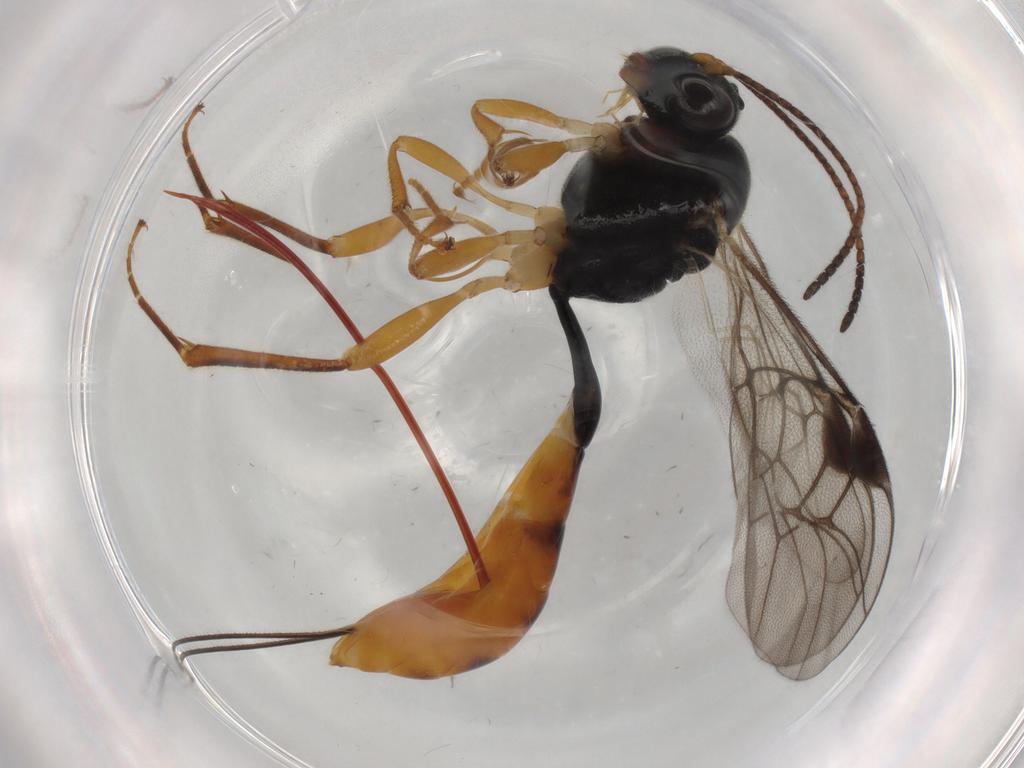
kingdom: Animalia
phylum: Arthropoda
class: Insecta
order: Hymenoptera
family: Ichneumonidae
